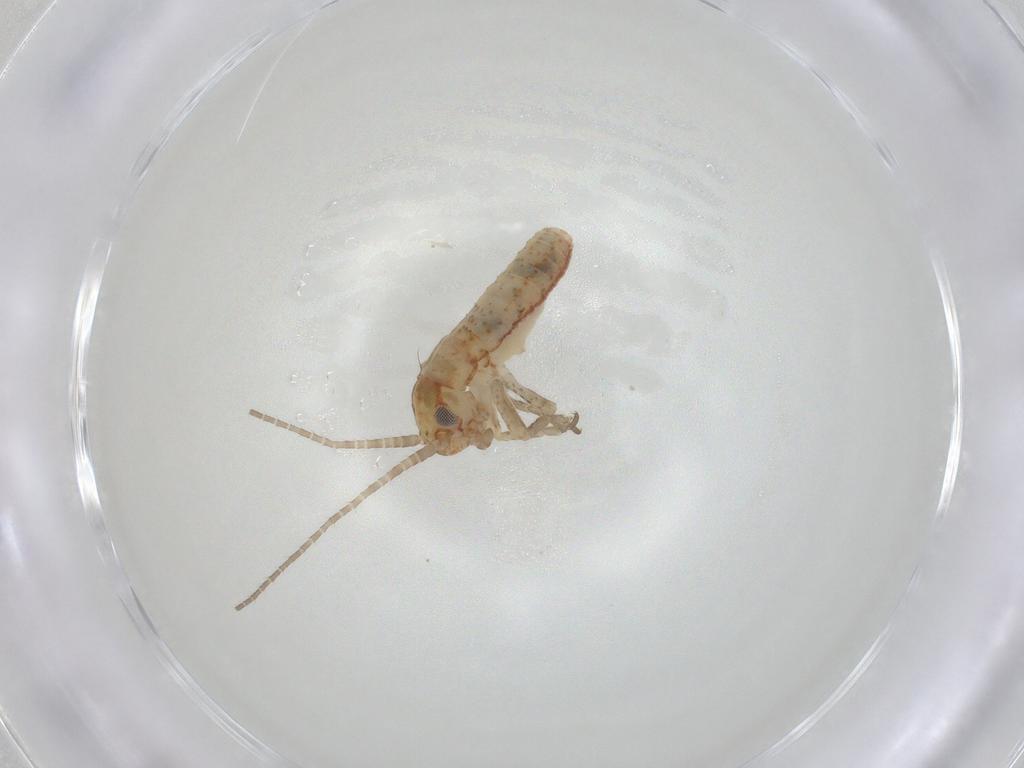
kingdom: Animalia
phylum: Arthropoda
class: Insecta
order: Orthoptera
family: Mogoplistidae
